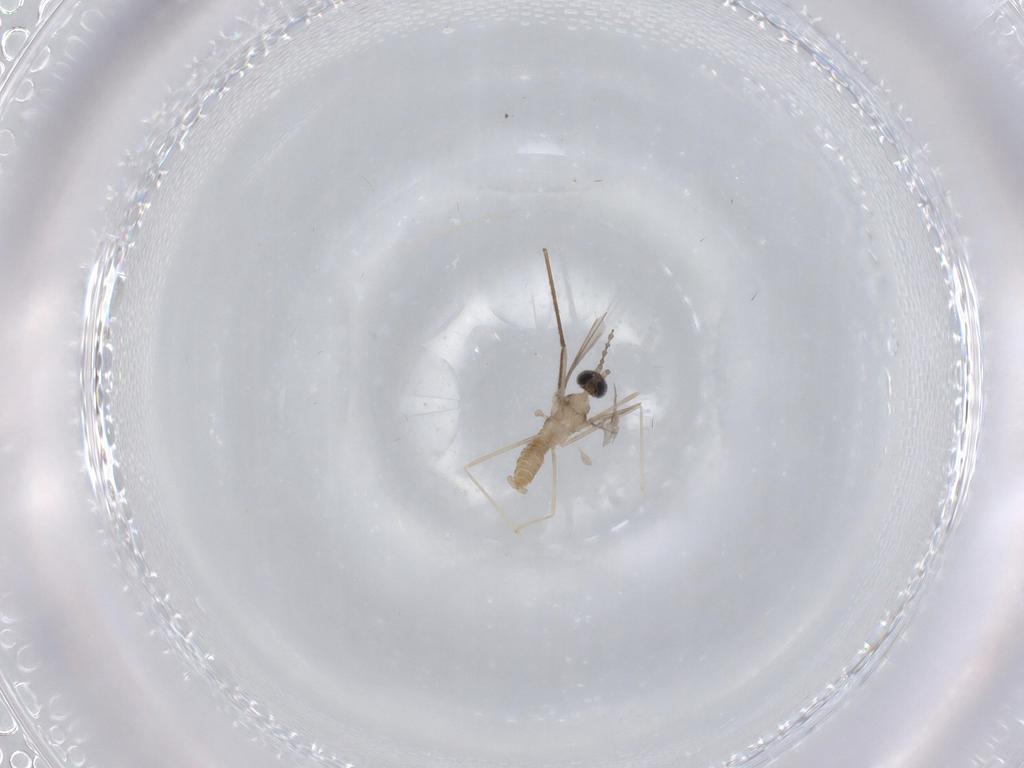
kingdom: Animalia
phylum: Arthropoda
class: Insecta
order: Diptera
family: Cecidomyiidae
